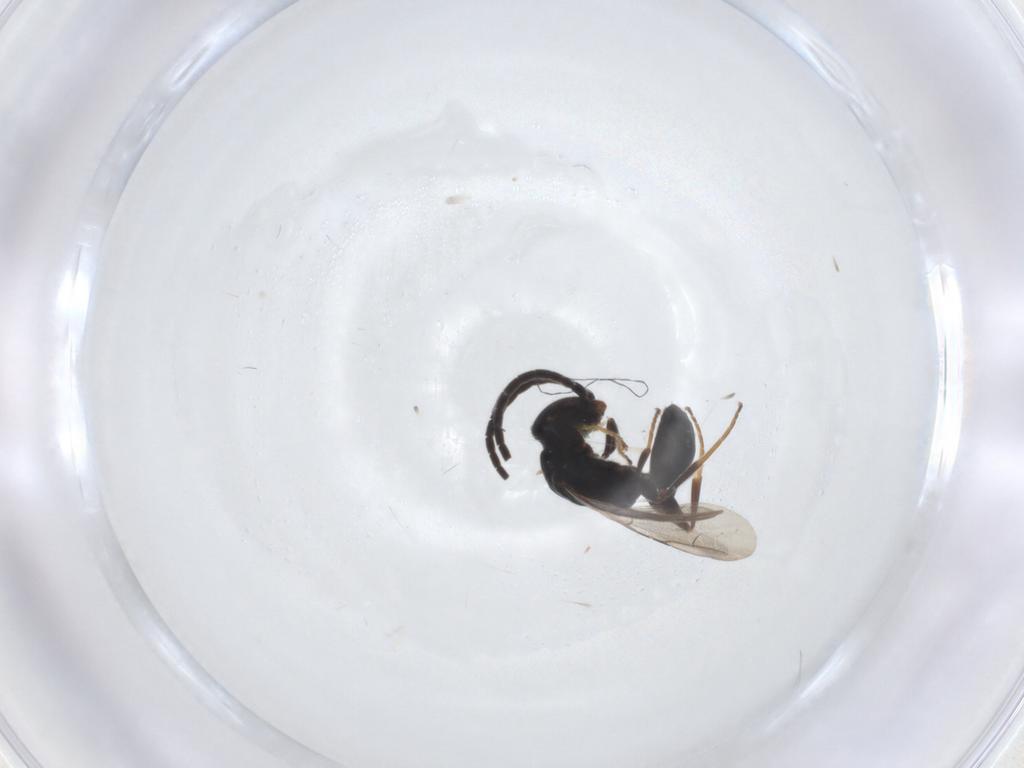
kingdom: Animalia
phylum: Arthropoda
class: Insecta
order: Hymenoptera
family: Bethylidae
